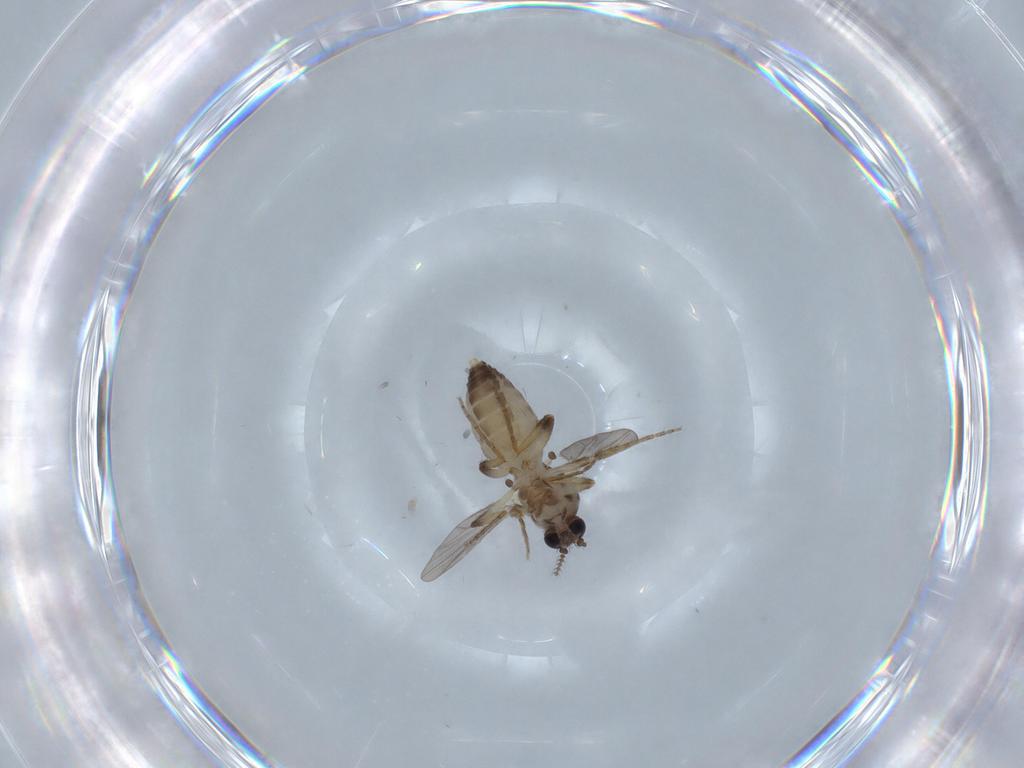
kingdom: Animalia
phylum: Arthropoda
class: Insecta
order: Diptera
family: Ceratopogonidae
